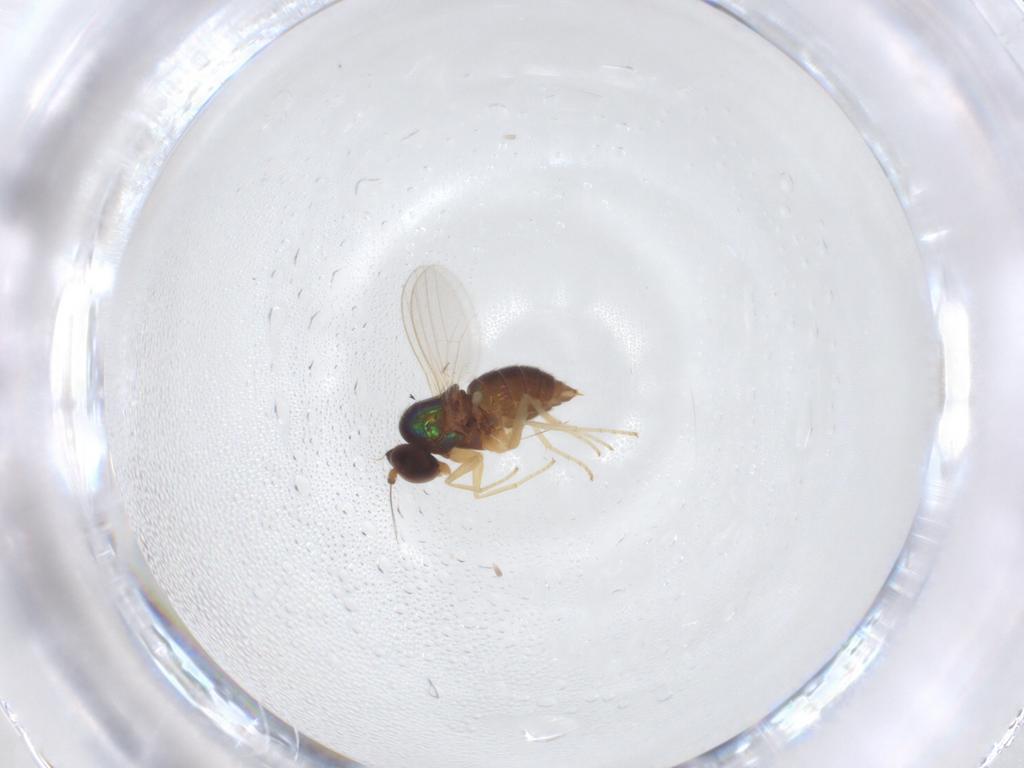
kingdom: Animalia
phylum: Arthropoda
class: Insecta
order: Diptera
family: Dolichopodidae
